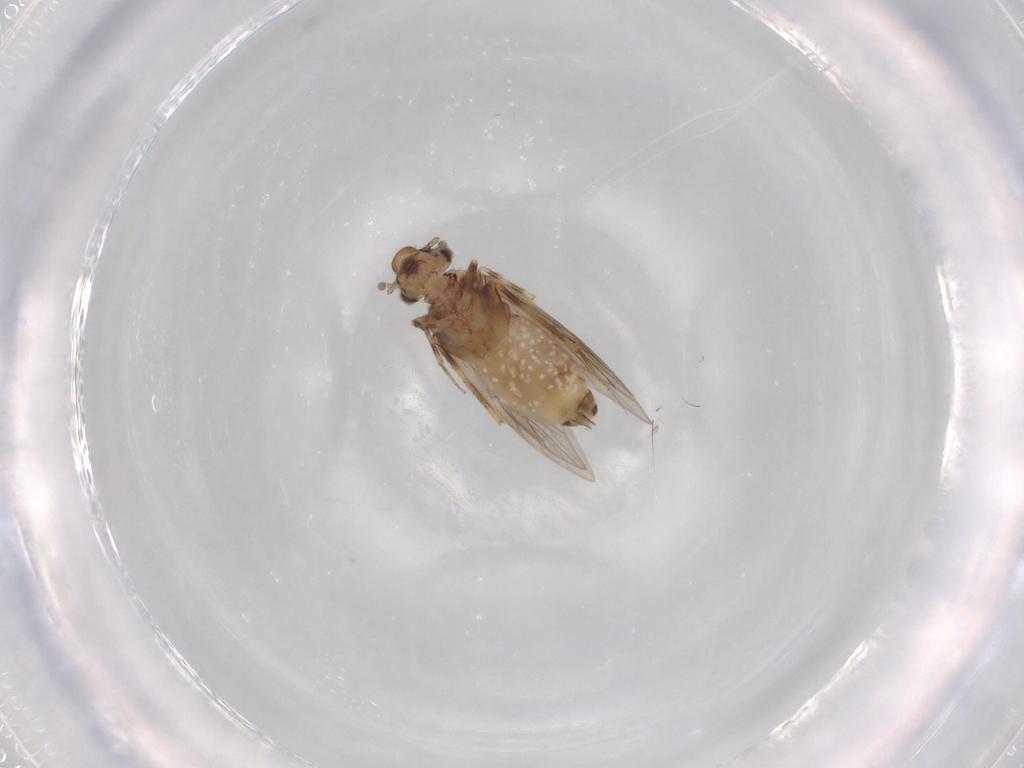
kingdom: Animalia
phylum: Arthropoda
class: Insecta
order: Psocodea
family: Lepidopsocidae
